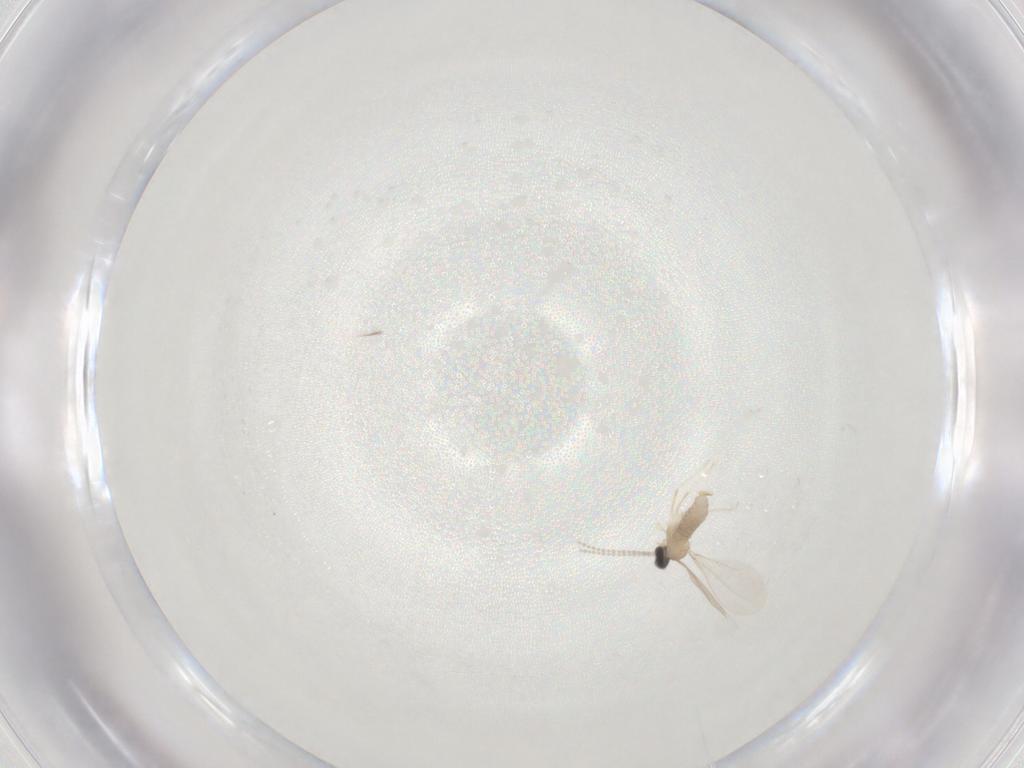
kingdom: Animalia
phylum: Arthropoda
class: Insecta
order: Diptera
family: Cecidomyiidae
